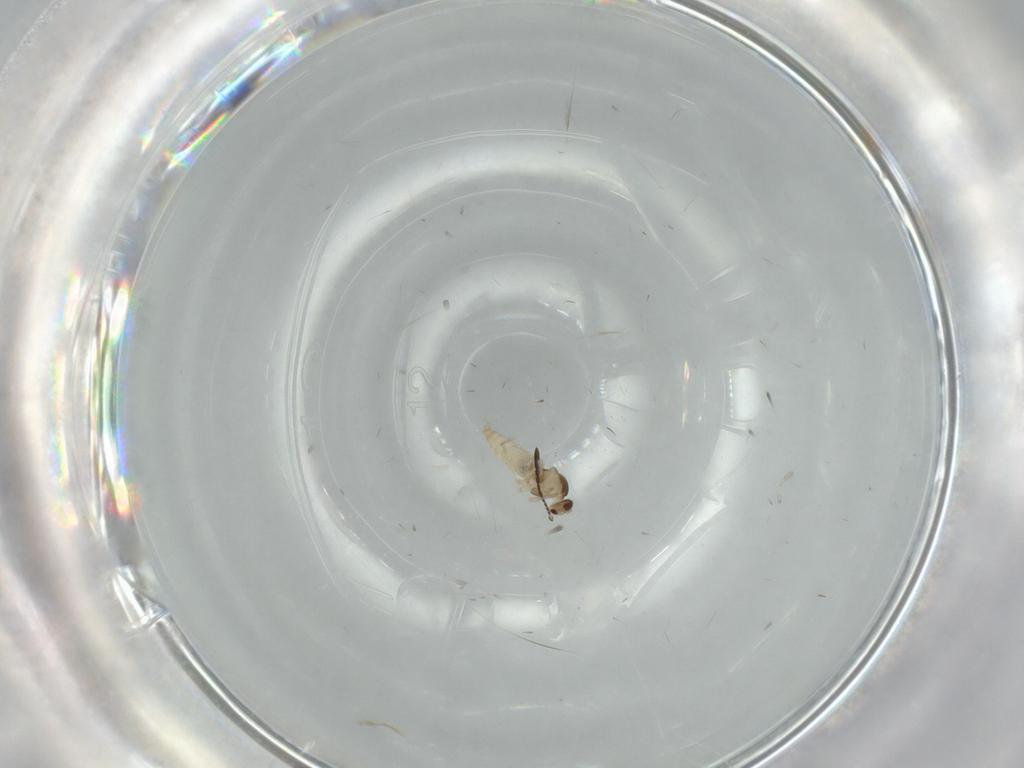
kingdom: Animalia
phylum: Arthropoda
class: Insecta
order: Diptera
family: Cecidomyiidae
